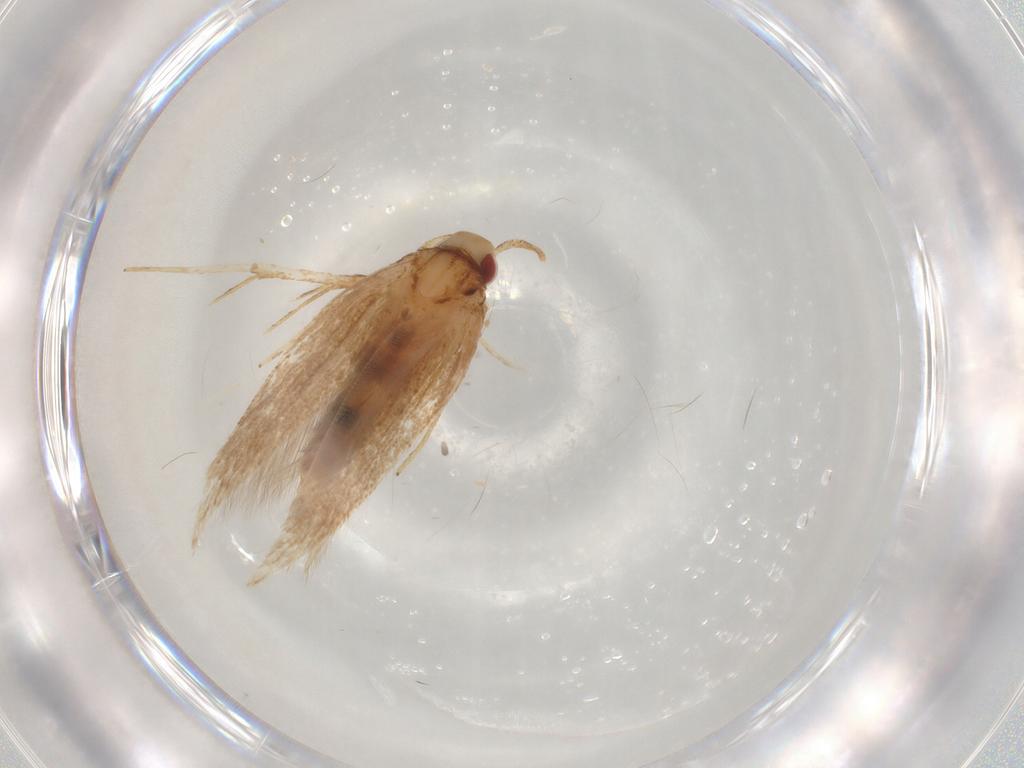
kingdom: Animalia
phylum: Arthropoda
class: Insecta
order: Lepidoptera
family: Cosmopterigidae
